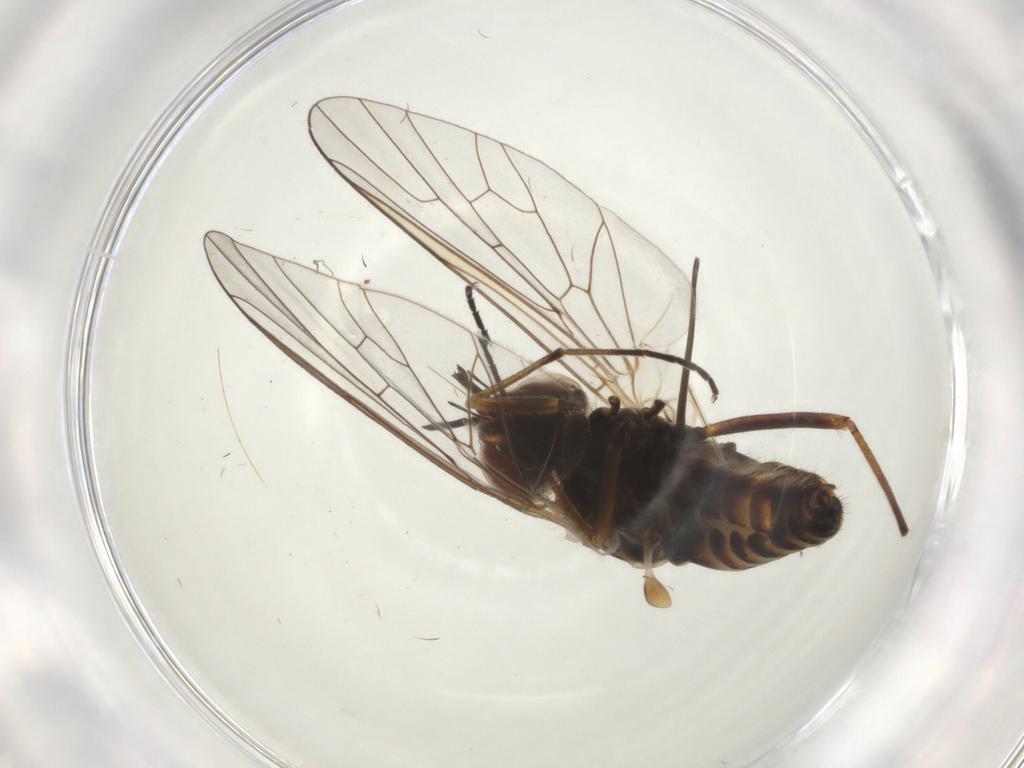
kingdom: Animalia
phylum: Arthropoda
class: Insecta
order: Diptera
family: Bombyliidae
